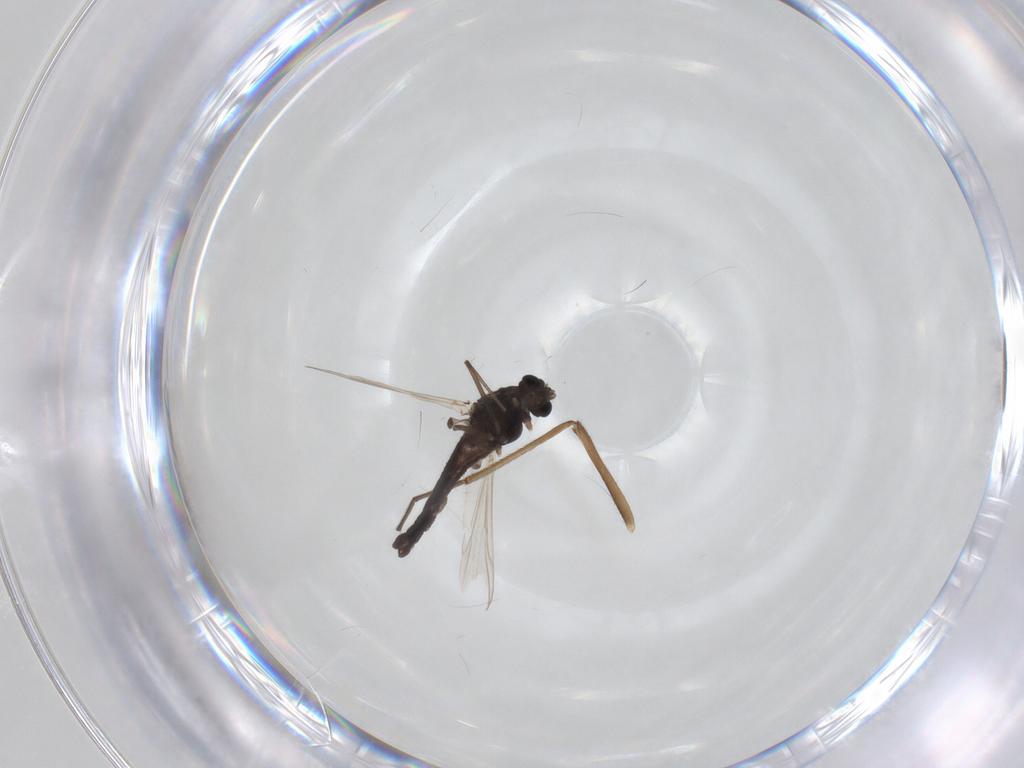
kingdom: Animalia
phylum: Arthropoda
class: Insecta
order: Diptera
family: Chironomidae
